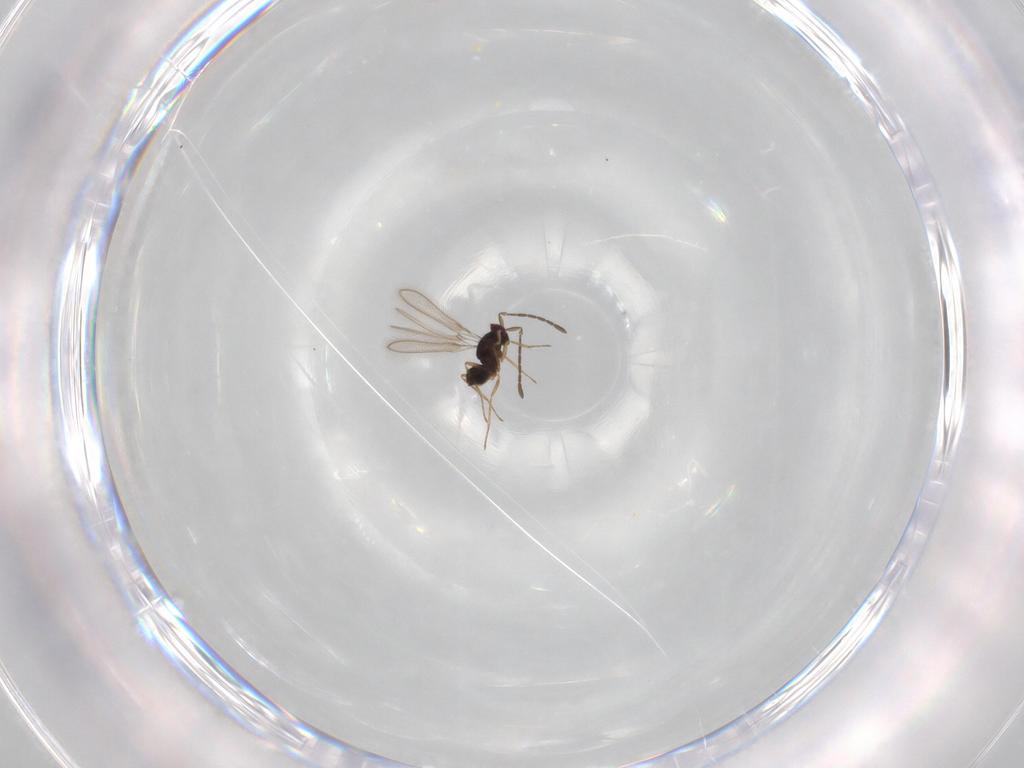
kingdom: Animalia
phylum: Arthropoda
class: Insecta
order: Hymenoptera
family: Mymaridae
